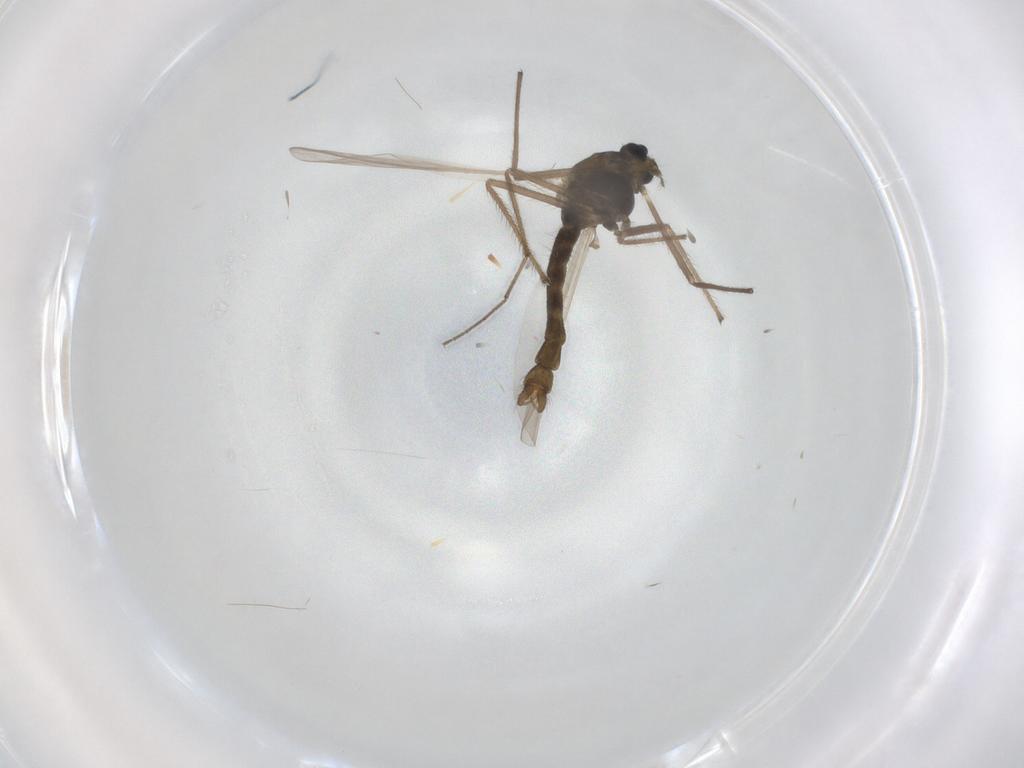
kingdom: Animalia
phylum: Arthropoda
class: Insecta
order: Diptera
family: Chironomidae
